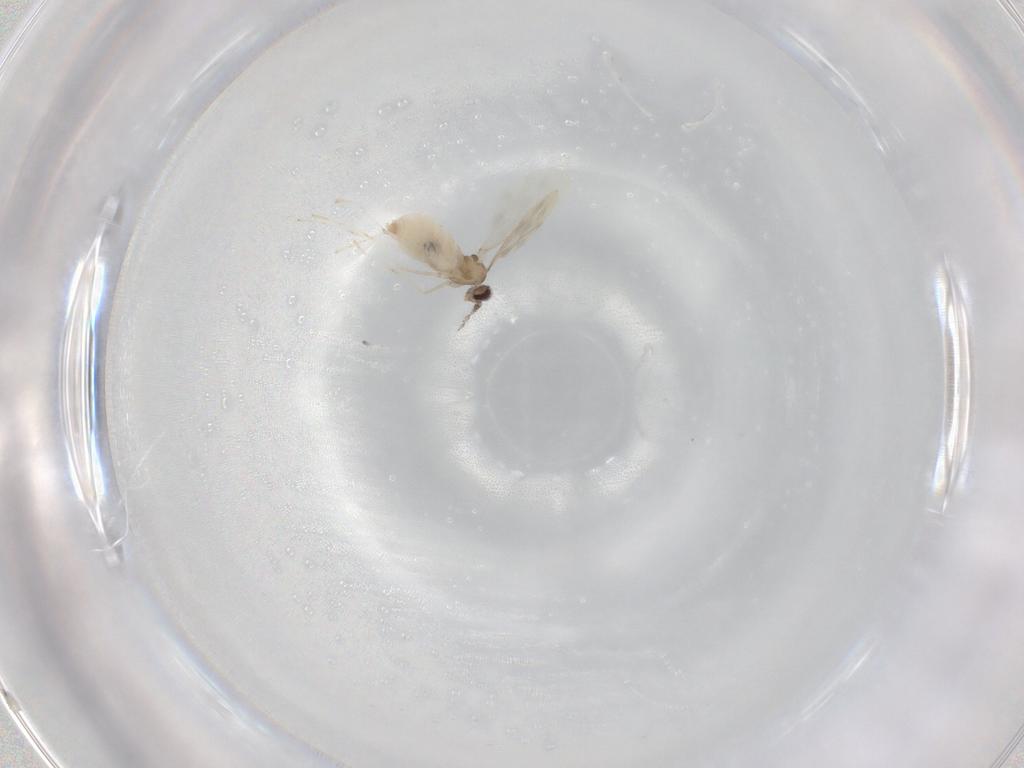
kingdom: Animalia
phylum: Arthropoda
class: Insecta
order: Diptera
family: Cecidomyiidae
